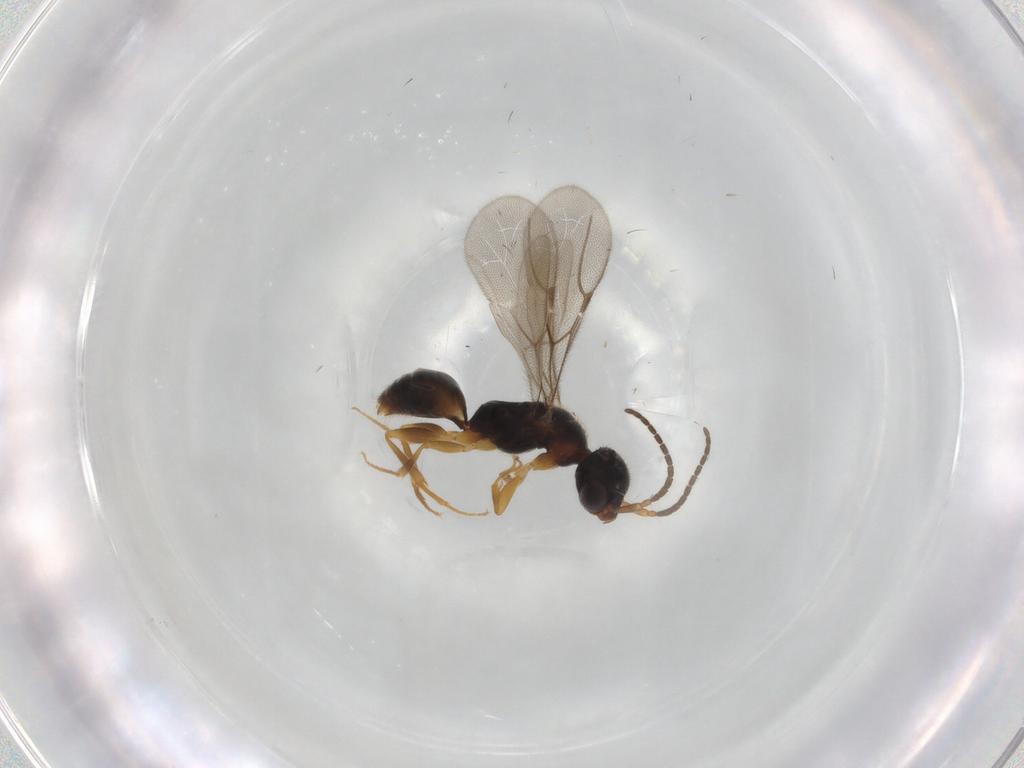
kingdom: Animalia
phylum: Arthropoda
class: Insecta
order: Hymenoptera
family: Bethylidae
